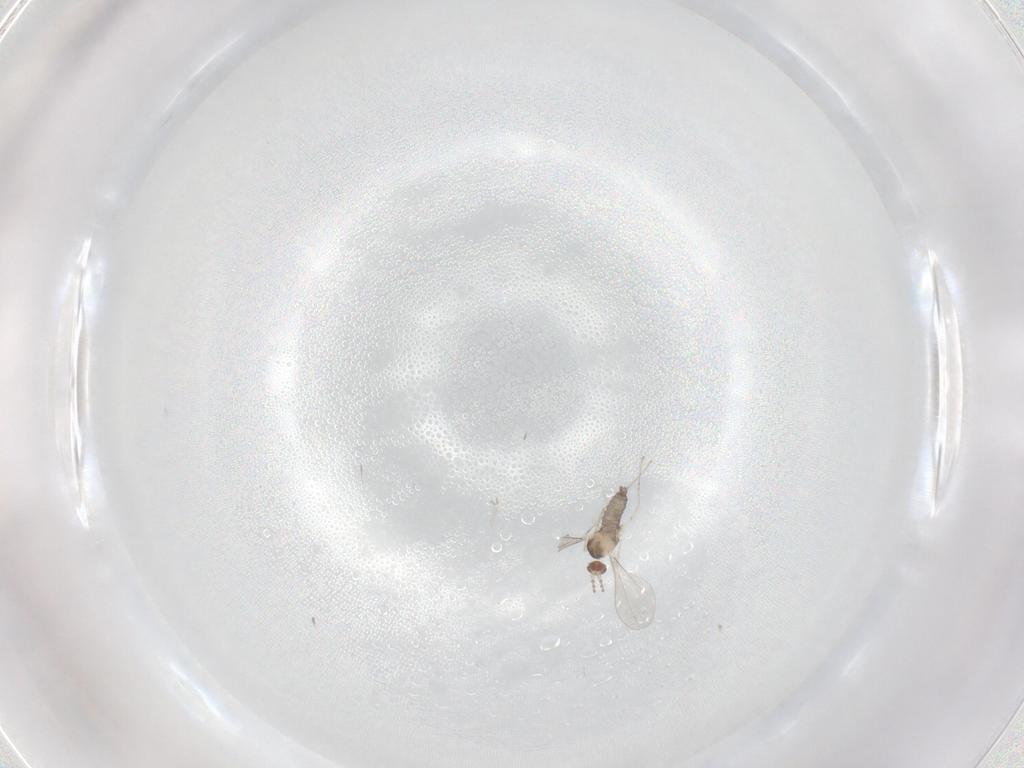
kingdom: Animalia
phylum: Arthropoda
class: Insecta
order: Diptera
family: Cecidomyiidae
